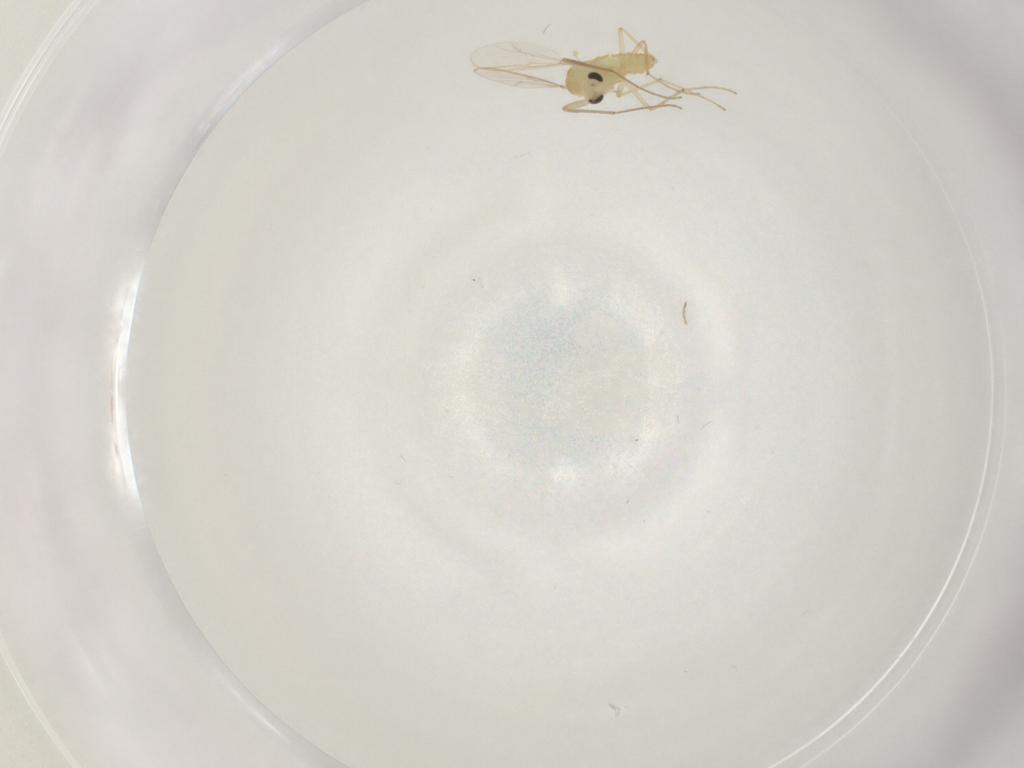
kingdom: Animalia
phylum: Arthropoda
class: Insecta
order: Diptera
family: Chironomidae
